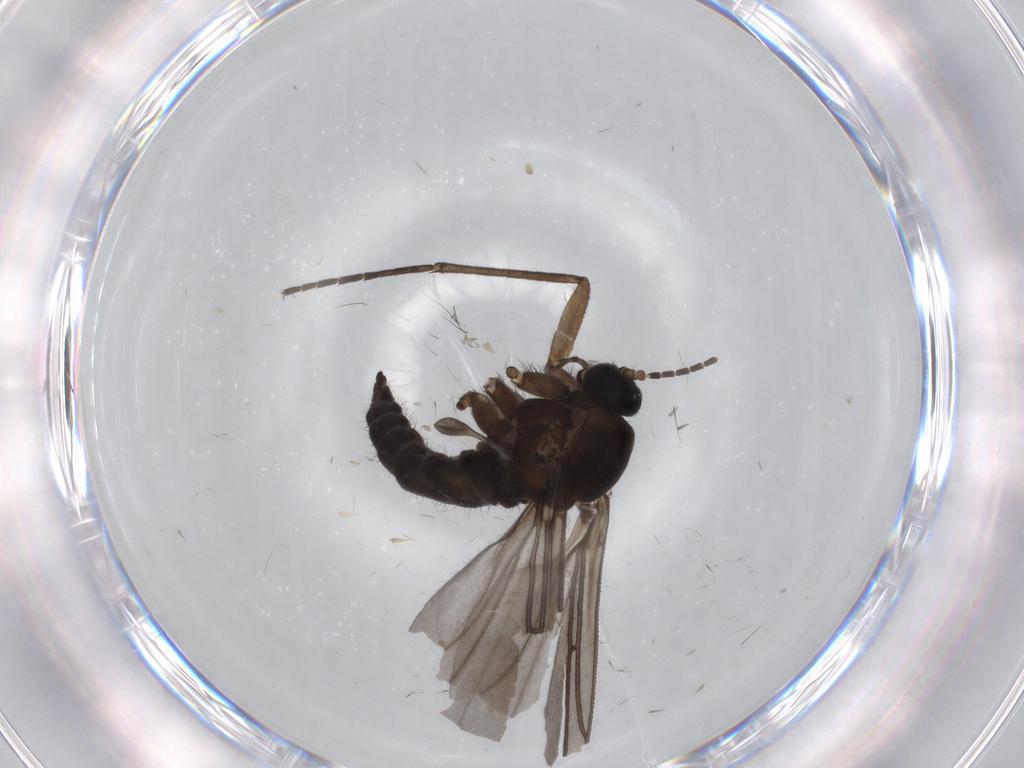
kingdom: Animalia
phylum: Arthropoda
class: Insecta
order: Diptera
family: Sciaridae
